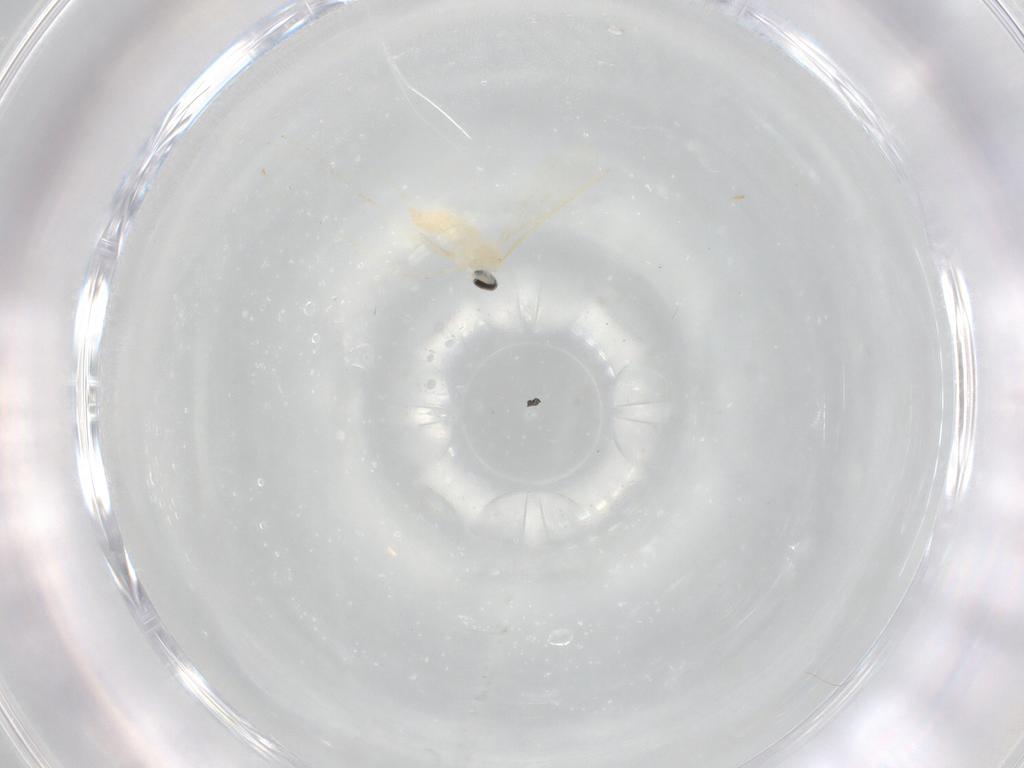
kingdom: Animalia
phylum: Arthropoda
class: Insecta
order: Diptera
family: Cecidomyiidae
